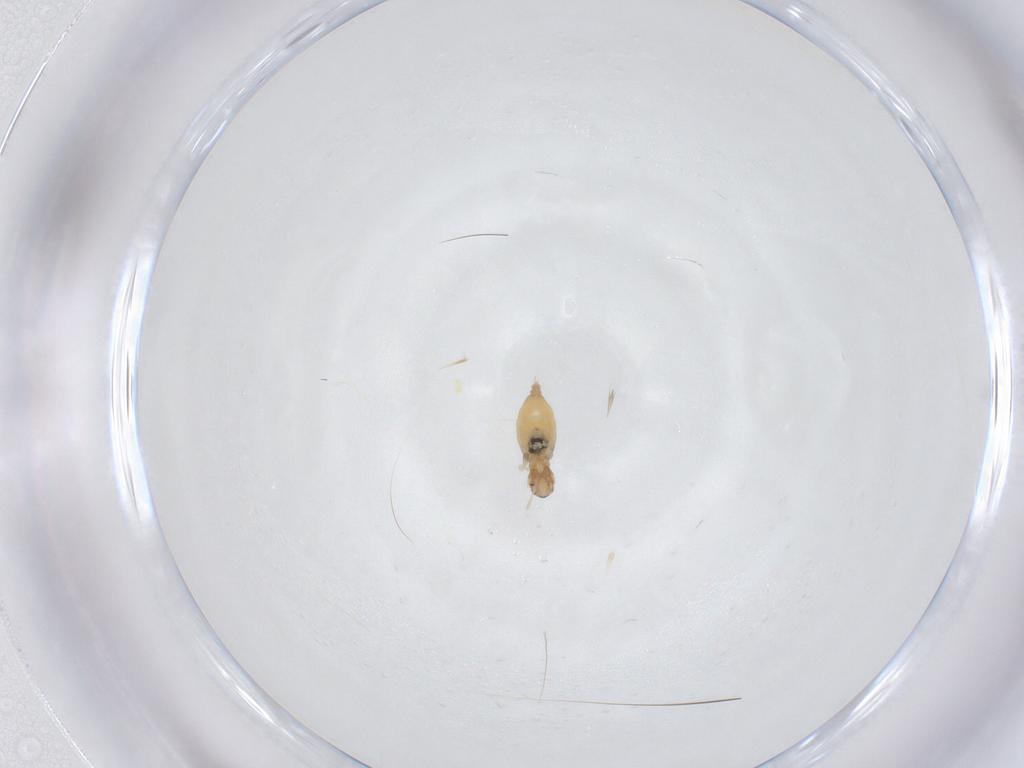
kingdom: Animalia
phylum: Arthropoda
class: Insecta
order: Diptera
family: Cecidomyiidae
